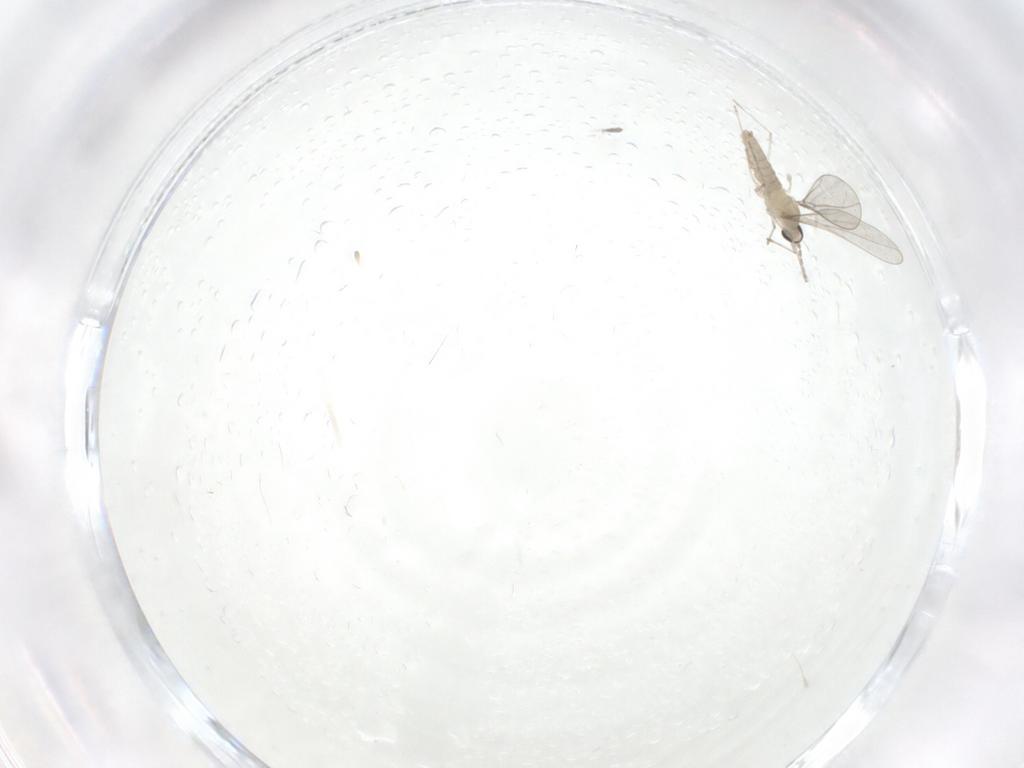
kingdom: Animalia
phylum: Arthropoda
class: Insecta
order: Diptera
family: Cecidomyiidae
